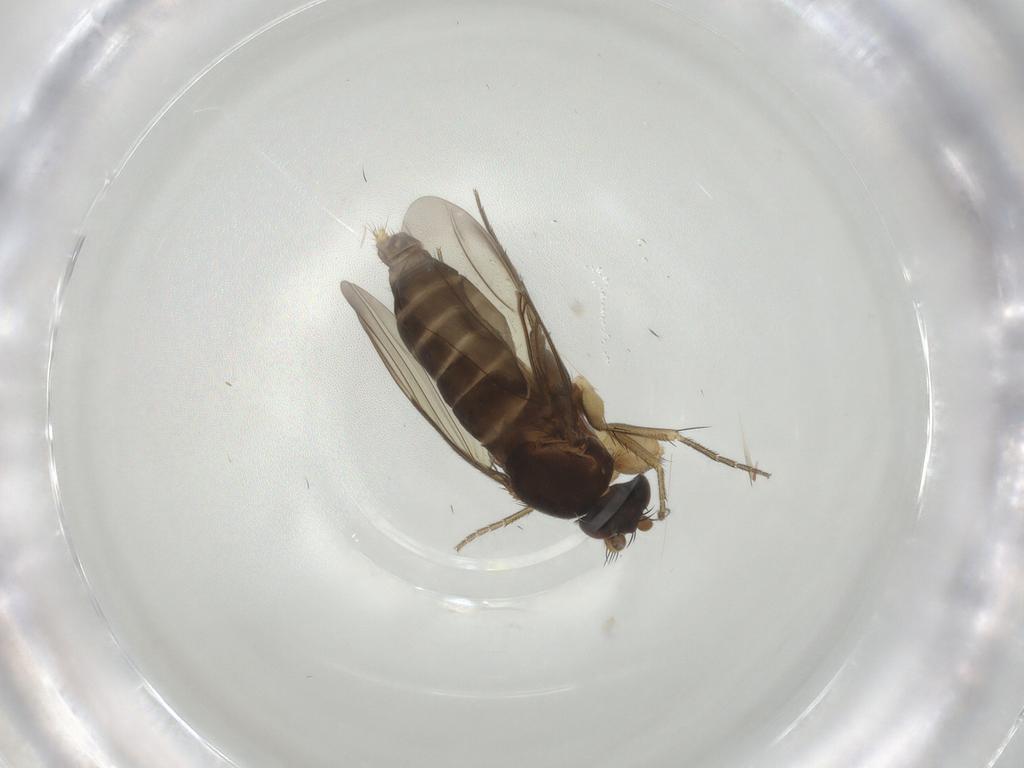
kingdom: Animalia
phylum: Arthropoda
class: Insecta
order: Diptera
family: Phoridae
